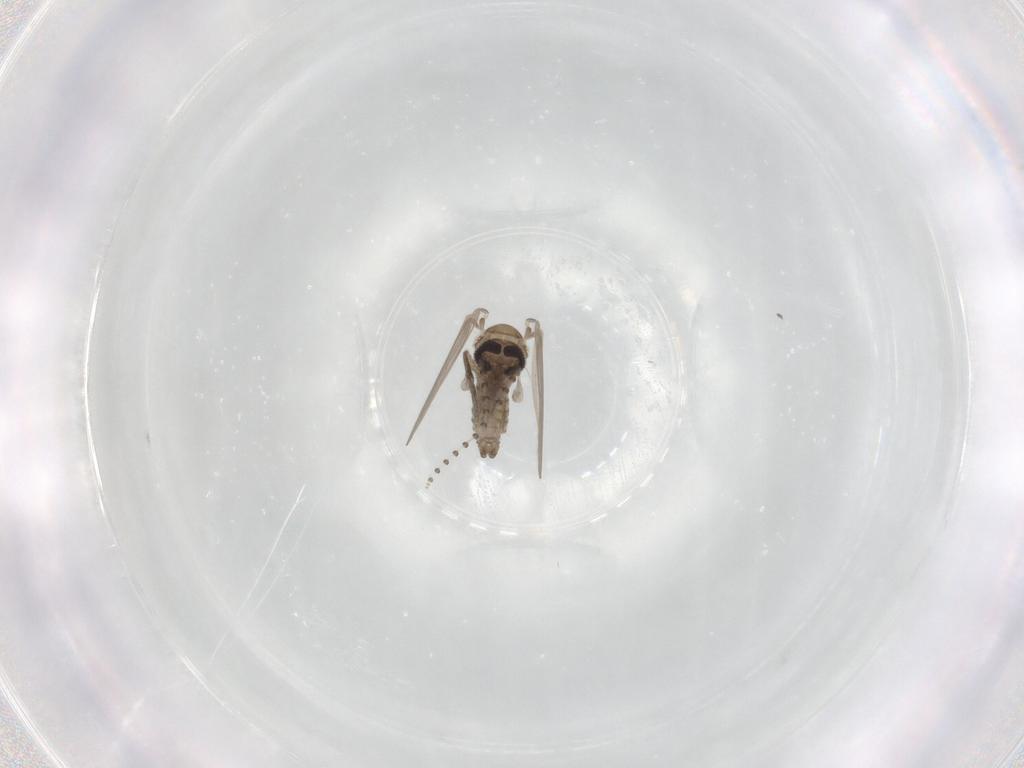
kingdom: Animalia
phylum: Arthropoda
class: Insecta
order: Diptera
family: Psychodidae
